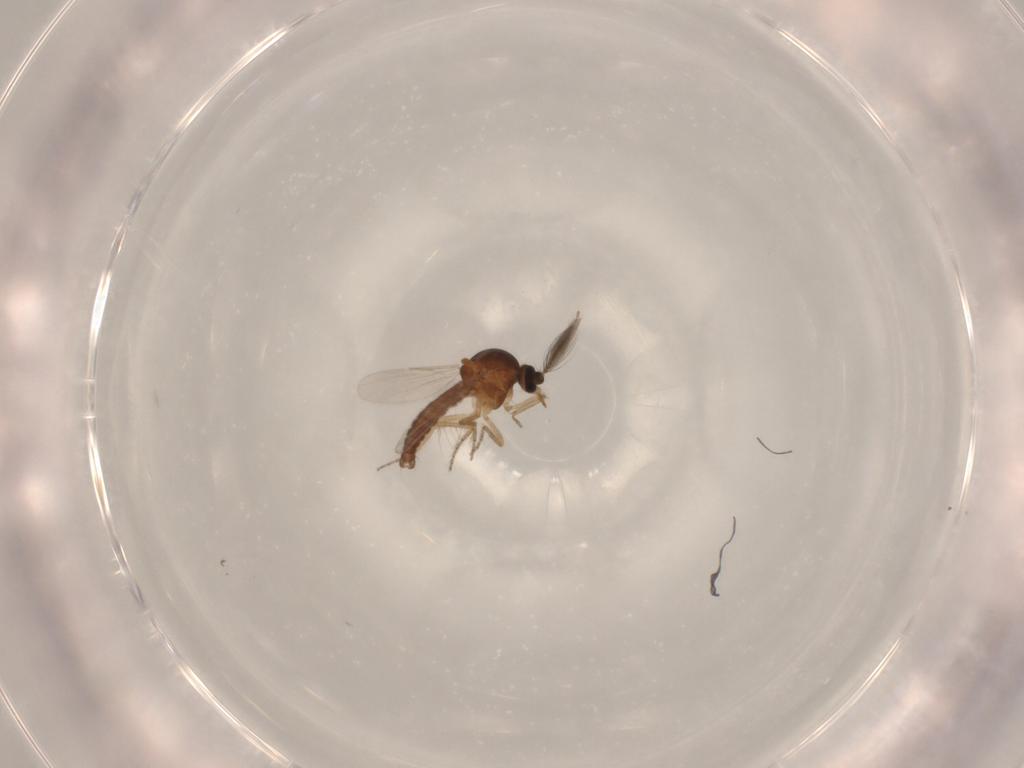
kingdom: Animalia
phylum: Arthropoda
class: Insecta
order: Diptera
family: Ceratopogonidae
